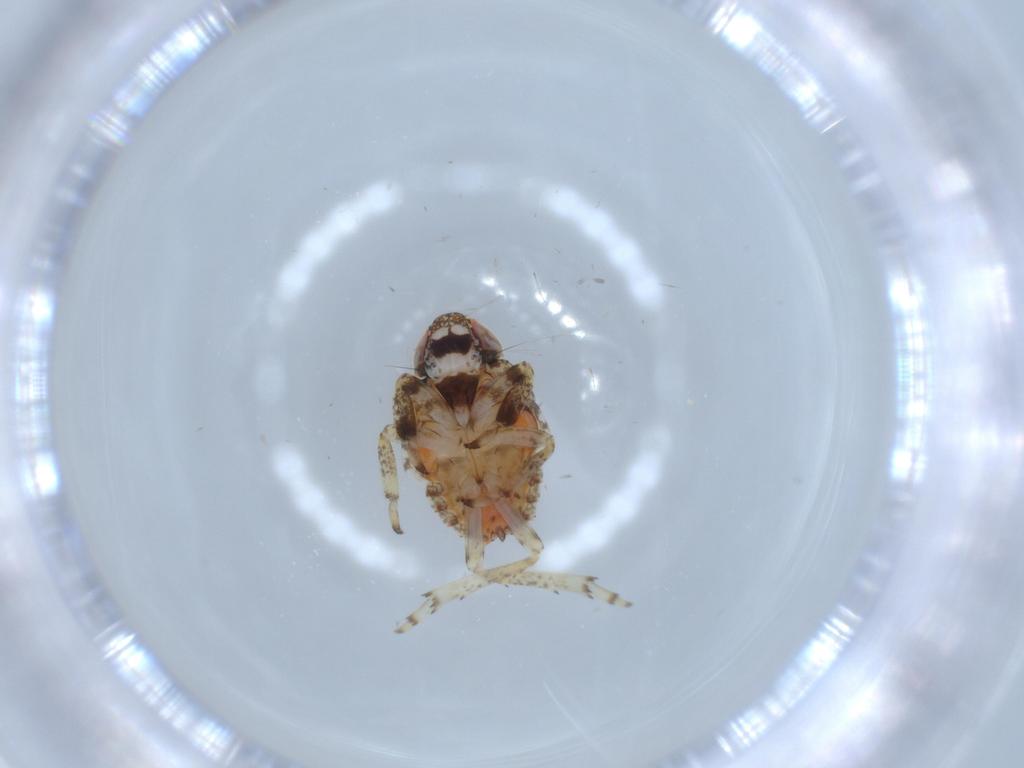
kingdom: Animalia
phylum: Arthropoda
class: Insecta
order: Hemiptera
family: Issidae
